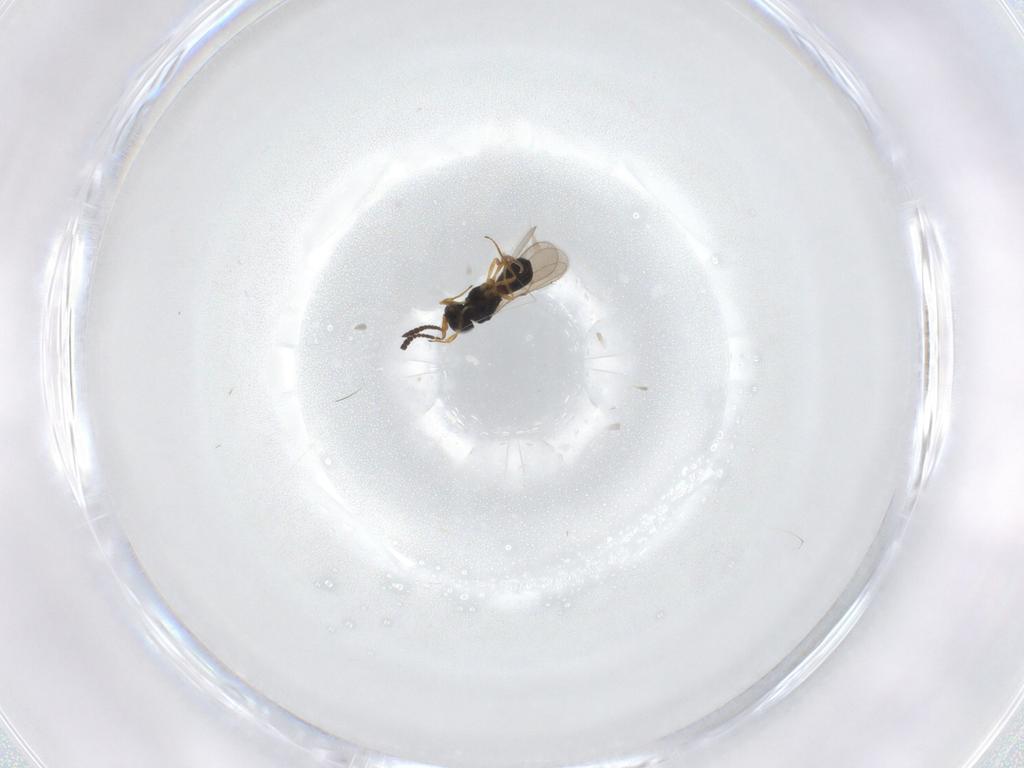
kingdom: Animalia
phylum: Arthropoda
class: Insecta
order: Hymenoptera
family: Scelionidae
